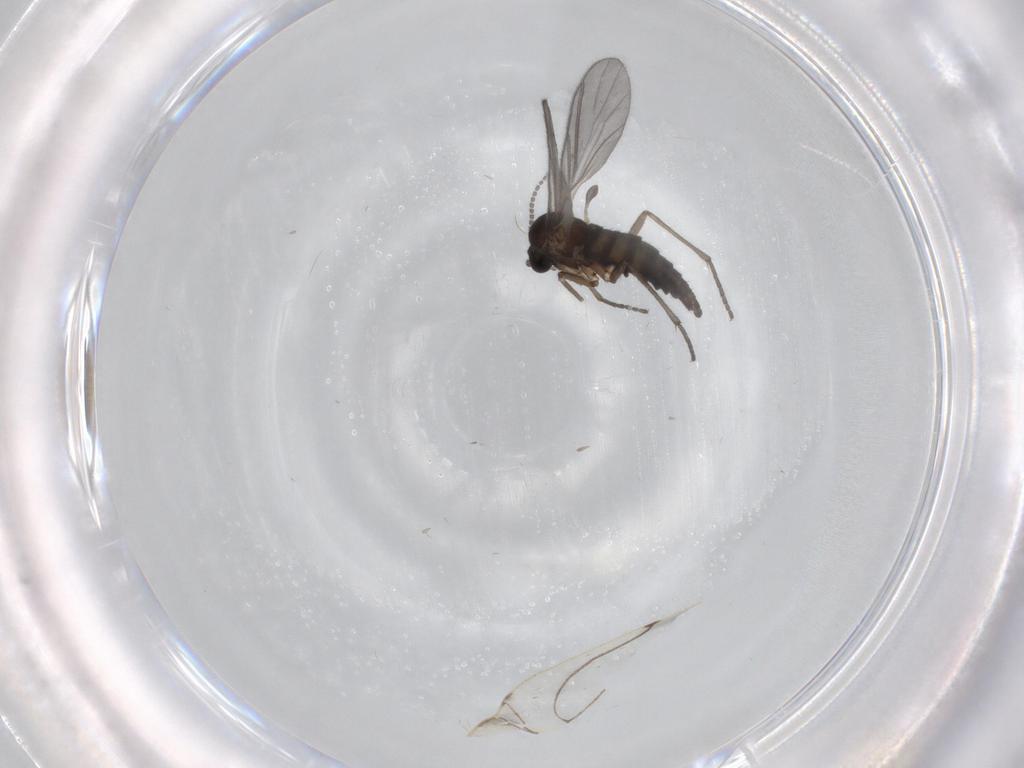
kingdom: Animalia
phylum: Arthropoda
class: Insecta
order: Diptera
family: Sciaridae
